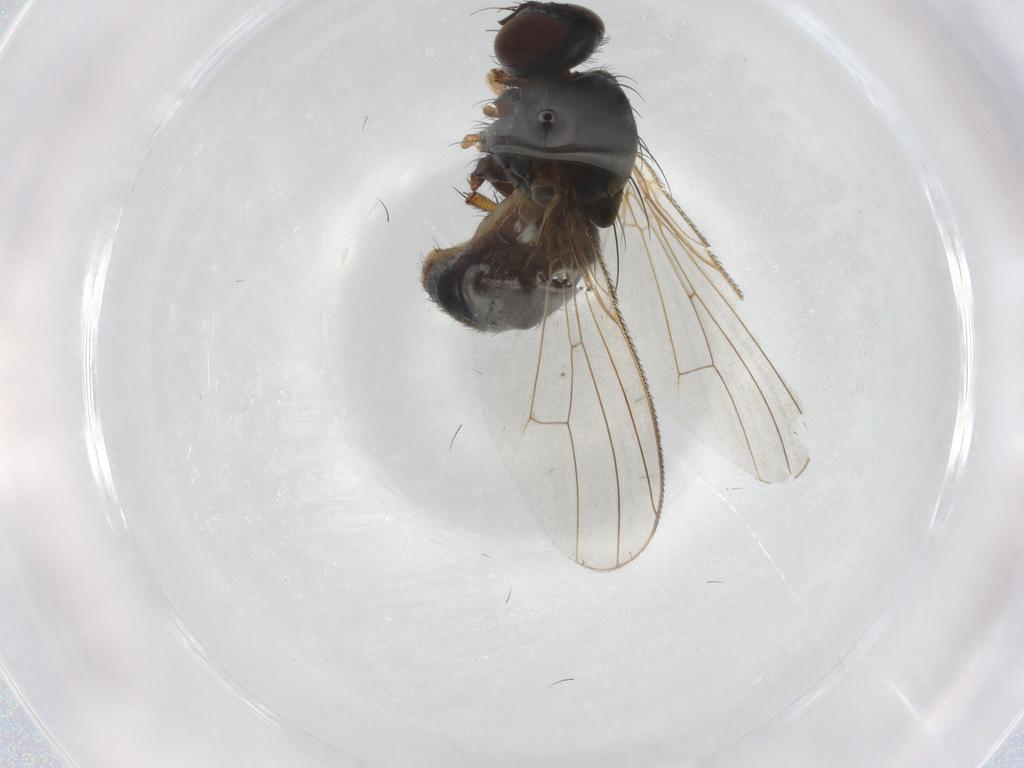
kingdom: Animalia
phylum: Arthropoda
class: Insecta
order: Diptera
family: Muscidae
